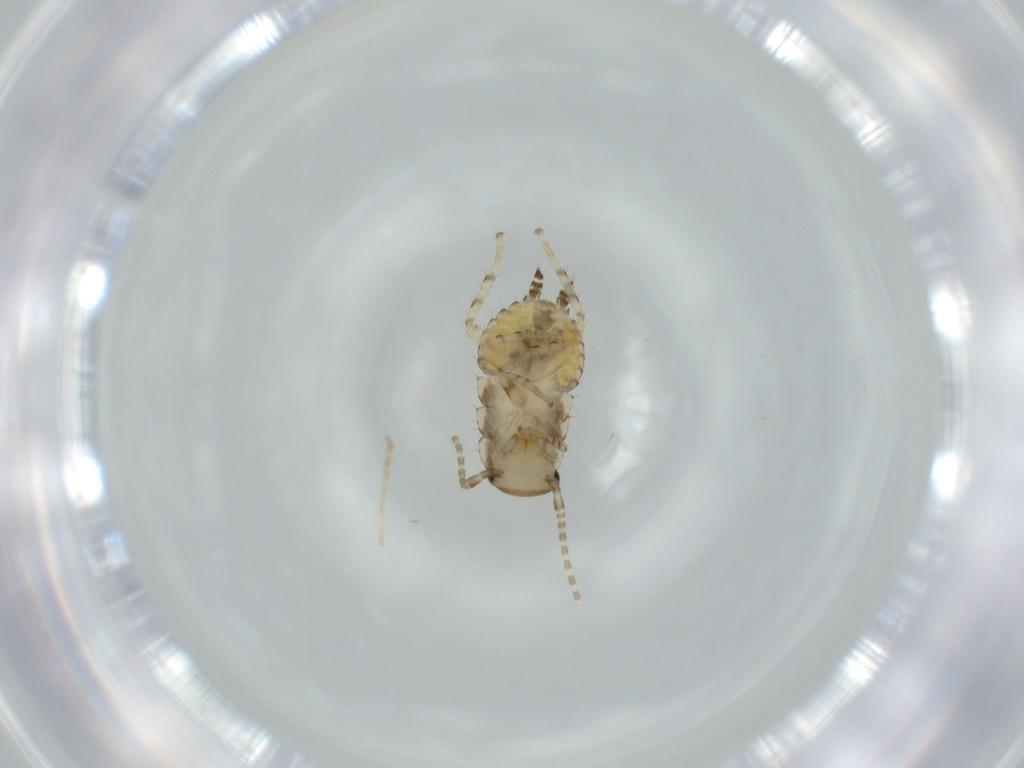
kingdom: Animalia
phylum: Arthropoda
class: Insecta
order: Blattodea
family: Ectobiidae
